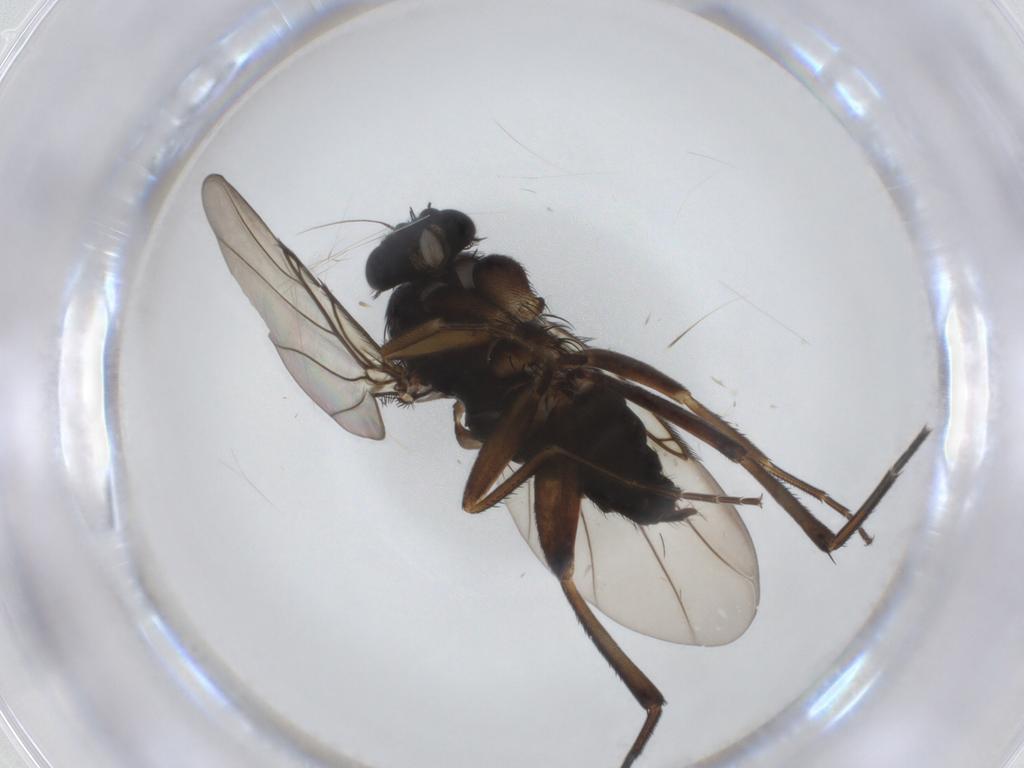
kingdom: Animalia
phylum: Arthropoda
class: Insecta
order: Diptera
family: Phoridae
